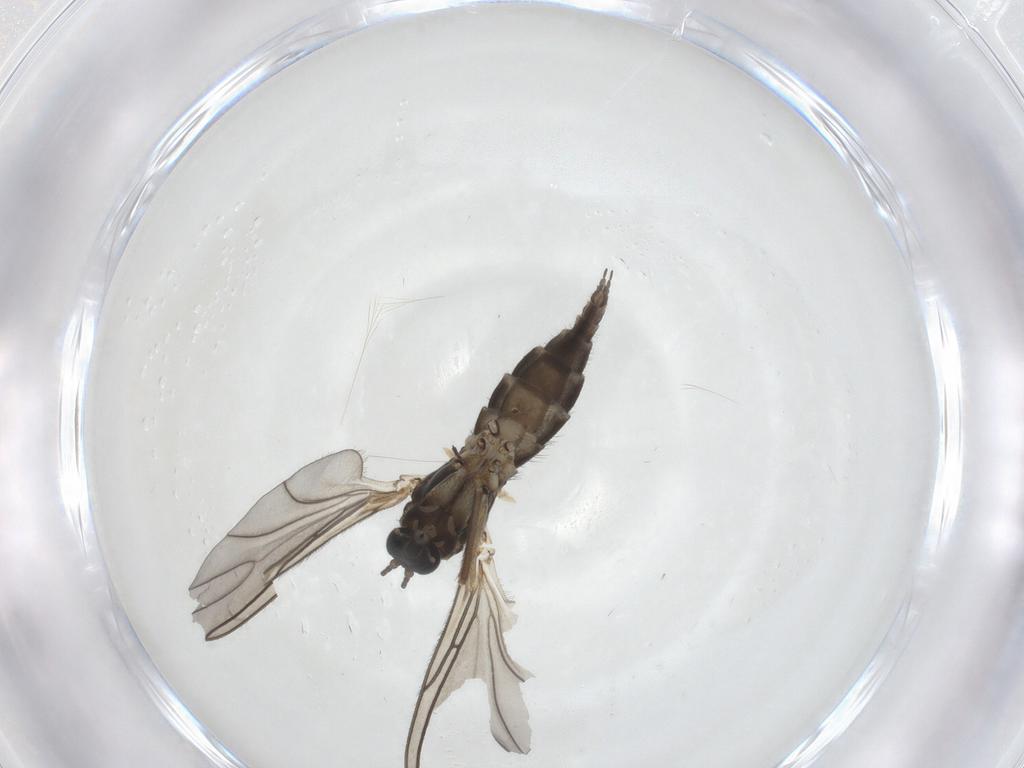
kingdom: Animalia
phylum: Arthropoda
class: Insecta
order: Diptera
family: Sciaridae
